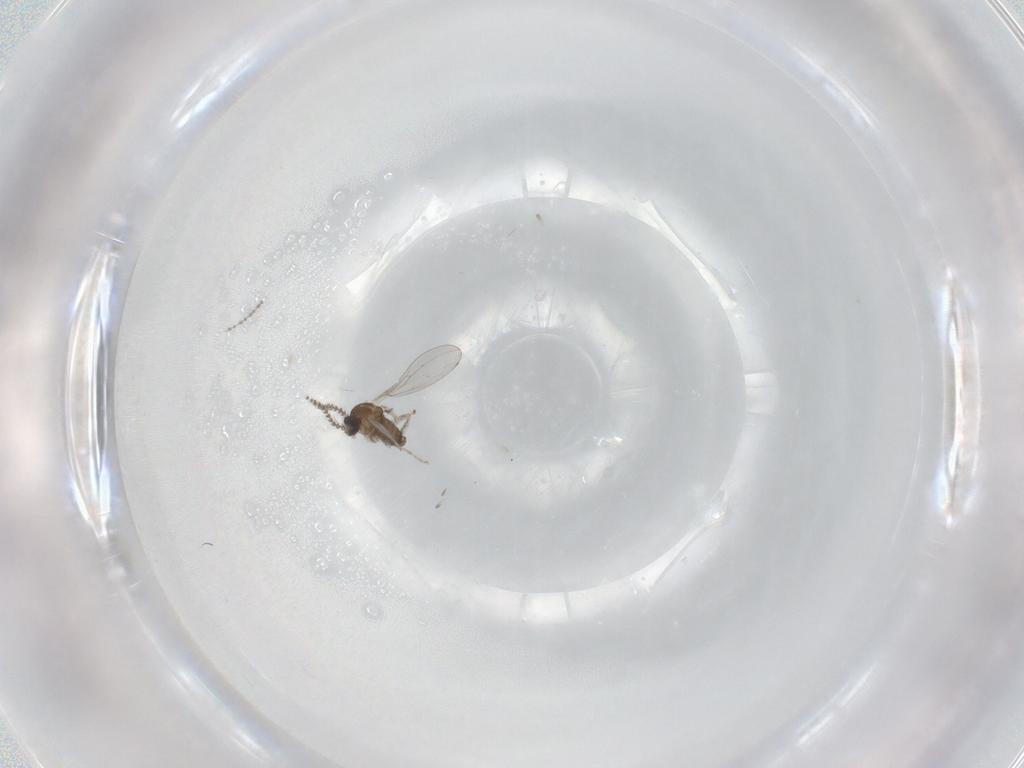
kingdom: Animalia
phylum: Arthropoda
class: Insecta
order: Diptera
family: Cecidomyiidae
